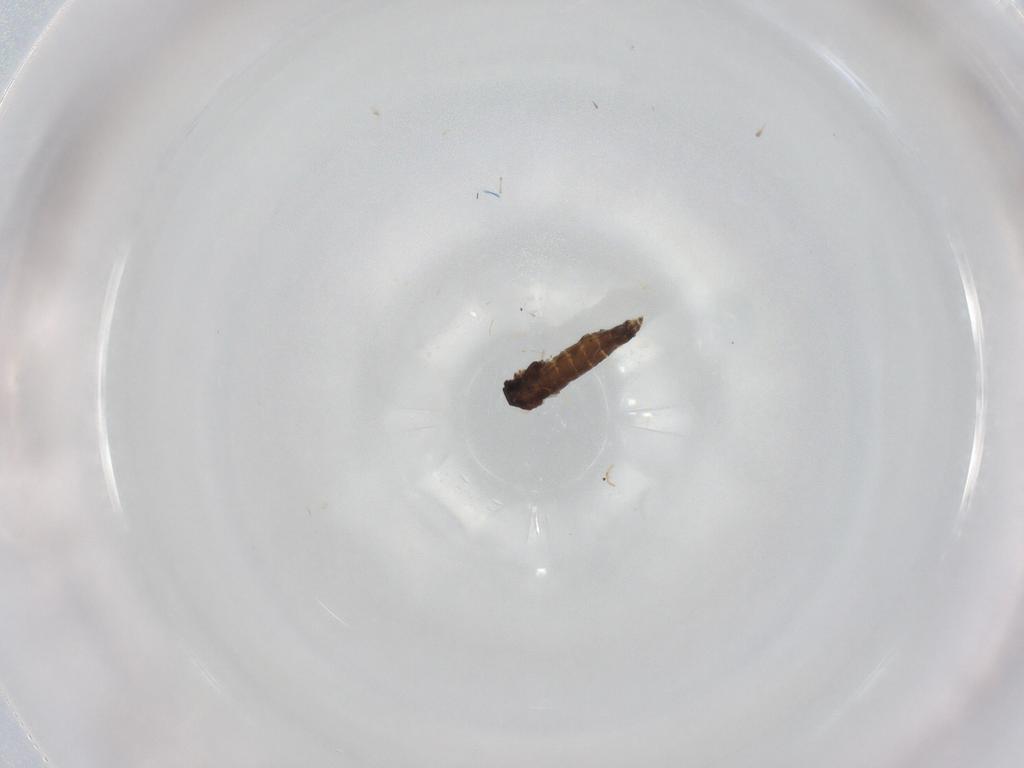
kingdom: Animalia
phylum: Arthropoda
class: Insecta
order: Diptera
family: Chironomidae
